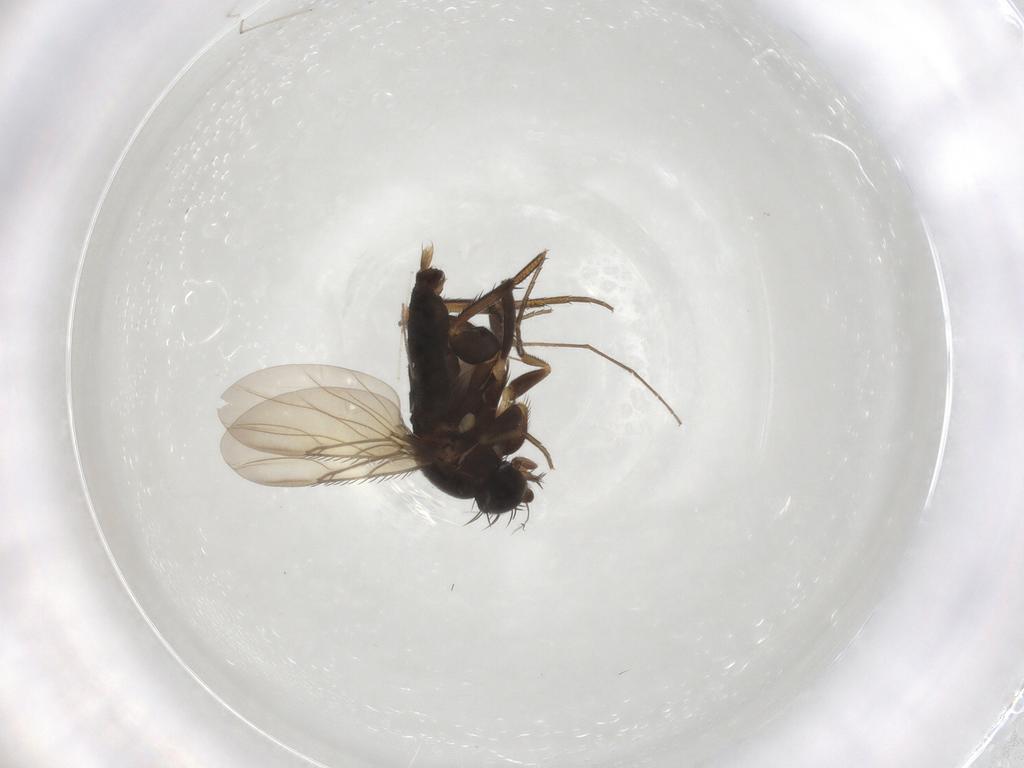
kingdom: Animalia
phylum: Arthropoda
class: Insecta
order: Diptera
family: Phoridae
